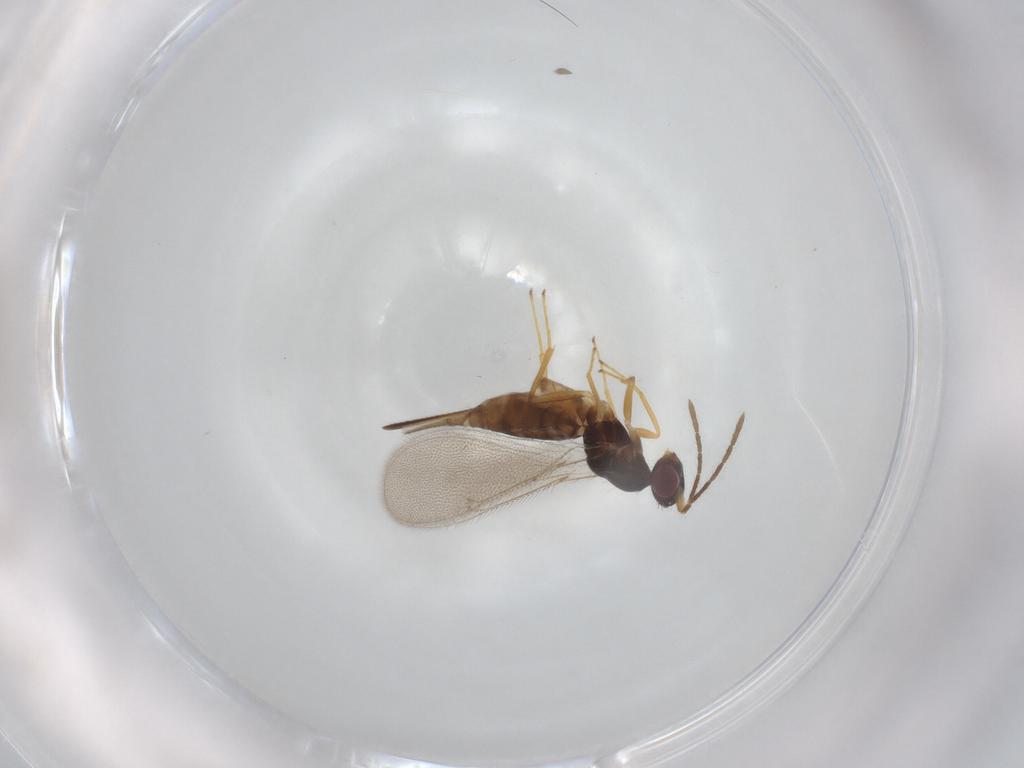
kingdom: Animalia
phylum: Arthropoda
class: Insecta
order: Hymenoptera
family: Eulophidae
